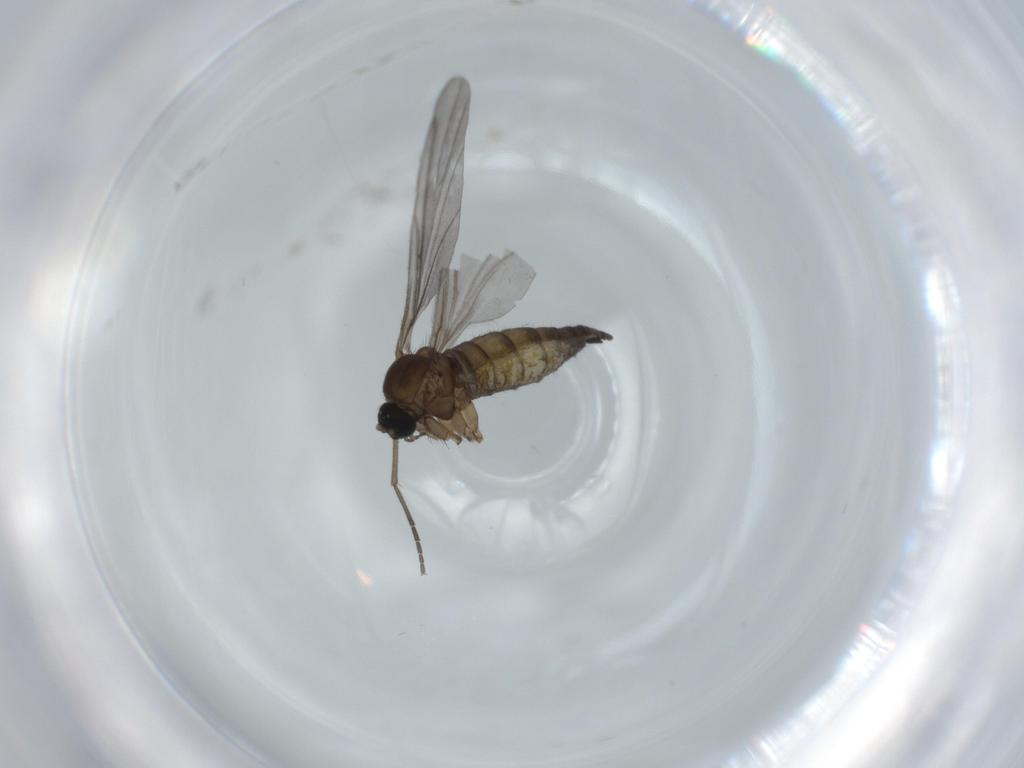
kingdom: Animalia
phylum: Arthropoda
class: Insecta
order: Diptera
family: Sciaridae
